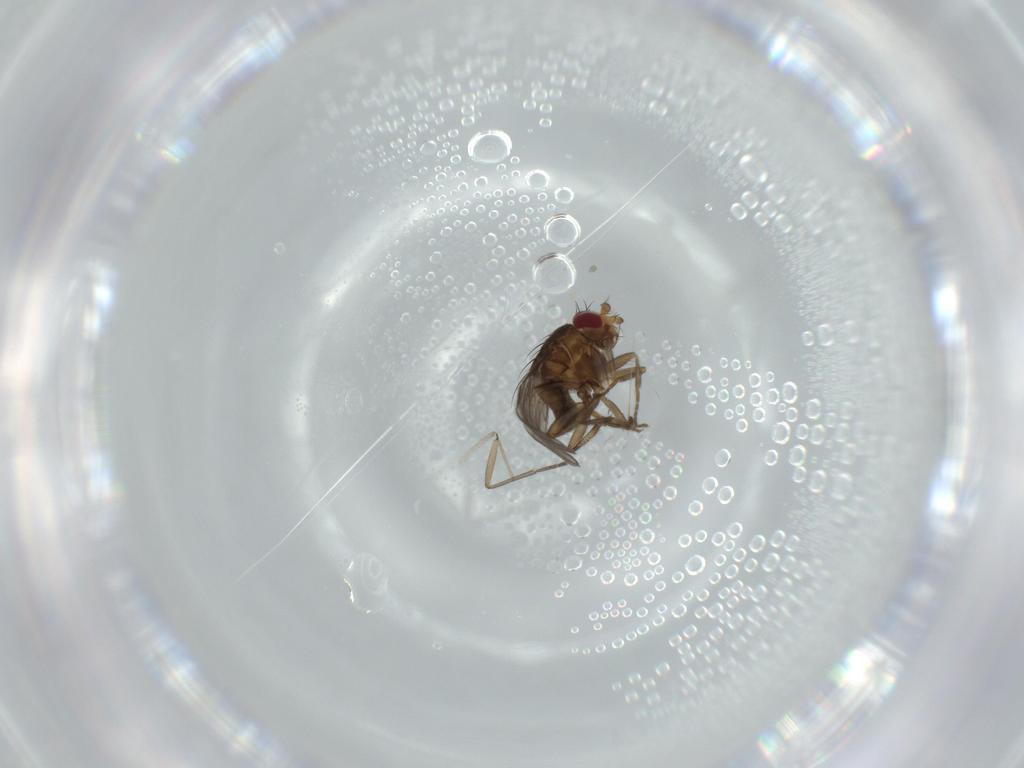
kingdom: Animalia
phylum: Arthropoda
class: Insecta
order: Diptera
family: Sphaeroceridae
